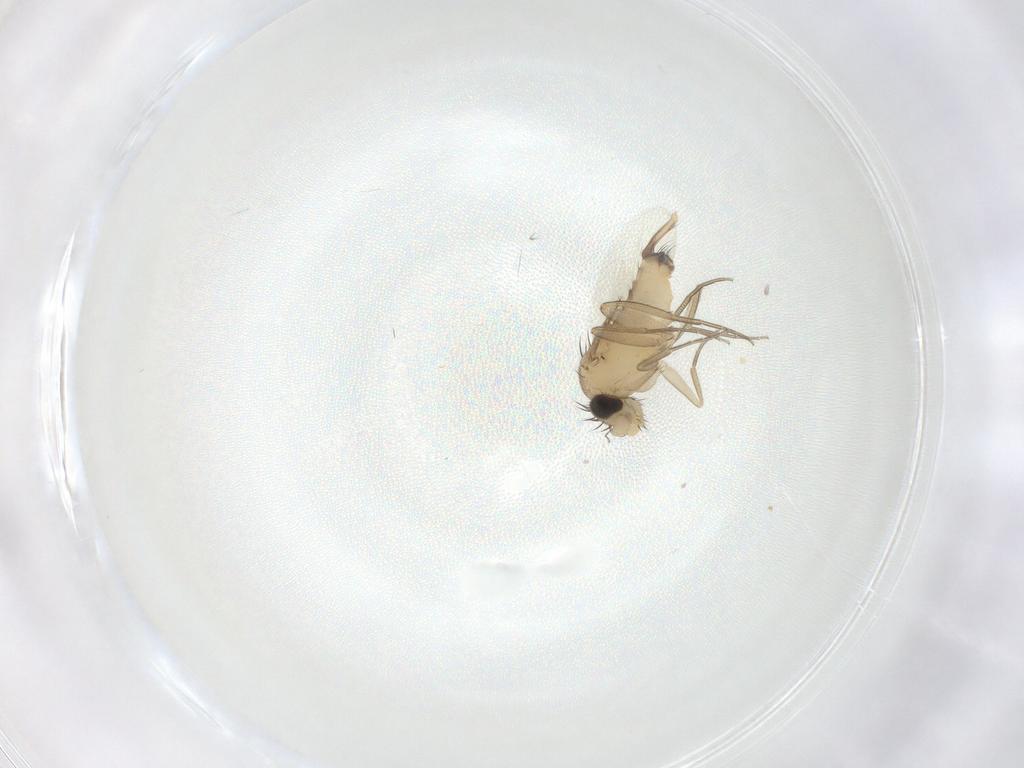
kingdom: Animalia
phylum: Arthropoda
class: Insecta
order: Diptera
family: Phoridae
